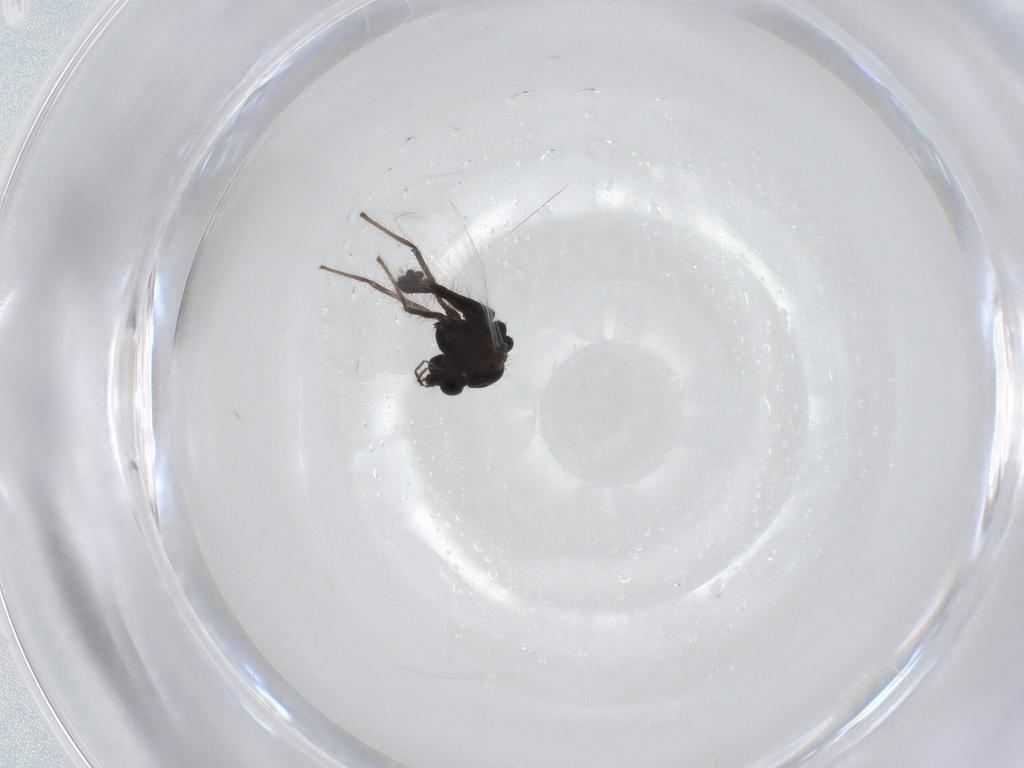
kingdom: Animalia
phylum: Arthropoda
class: Insecta
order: Diptera
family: Chironomidae
